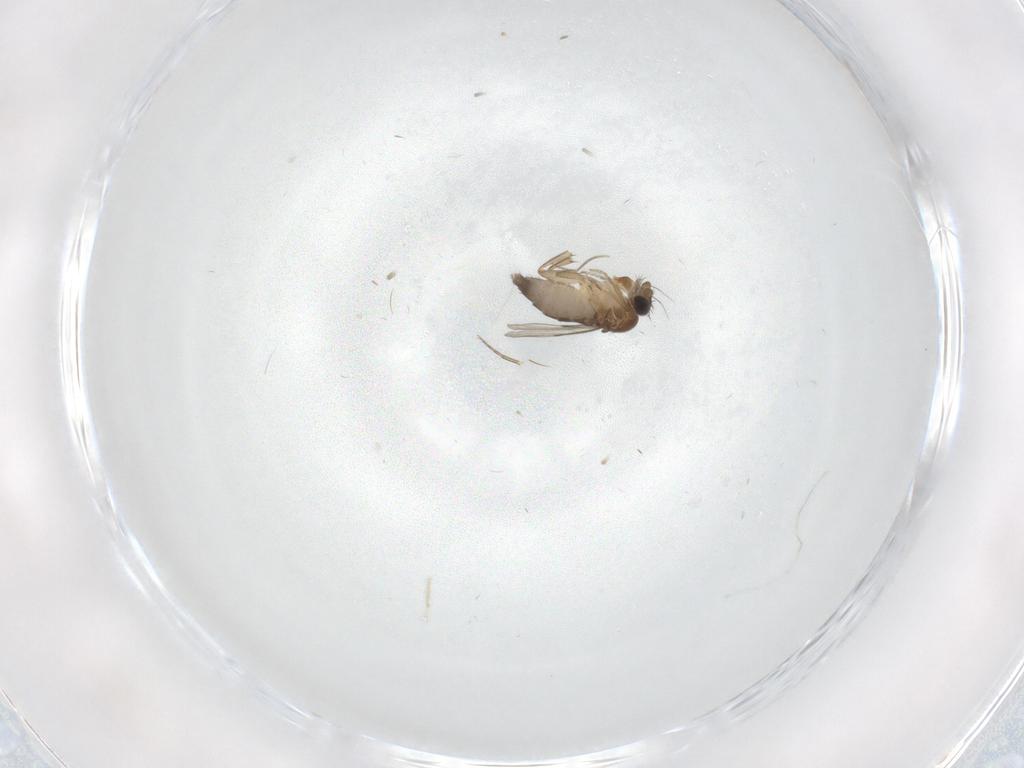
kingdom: Animalia
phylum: Arthropoda
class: Insecta
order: Diptera
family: Phoridae
